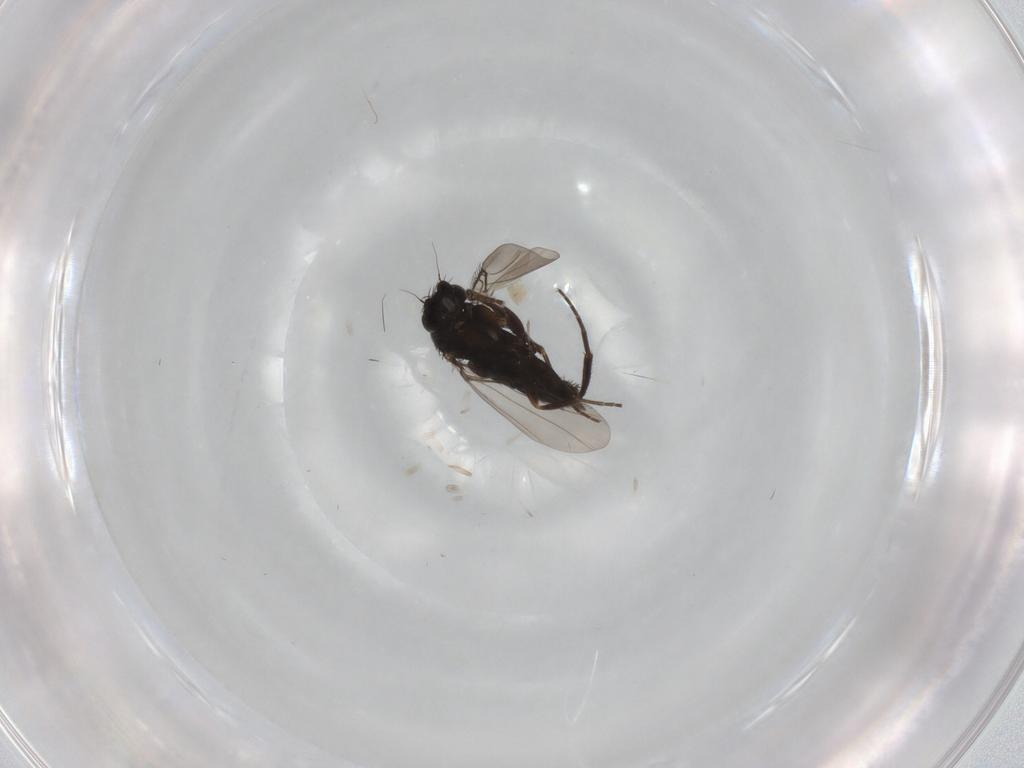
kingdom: Animalia
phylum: Arthropoda
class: Insecta
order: Diptera
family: Phoridae
